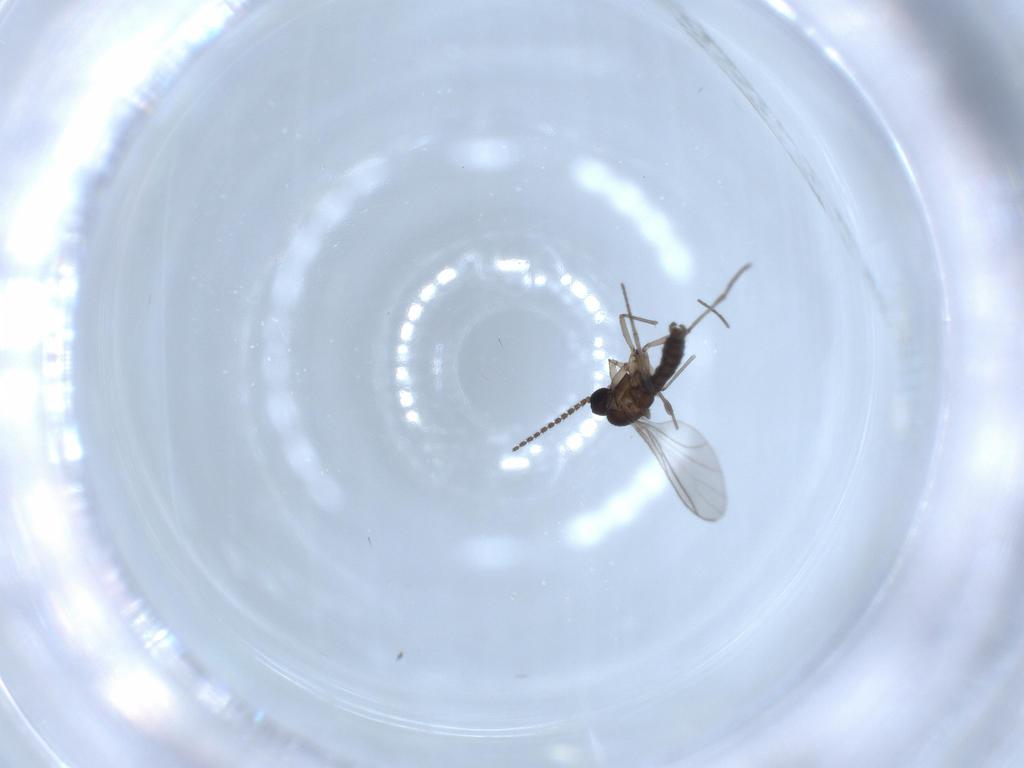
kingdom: Animalia
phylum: Arthropoda
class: Insecta
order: Diptera
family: Sciaridae
